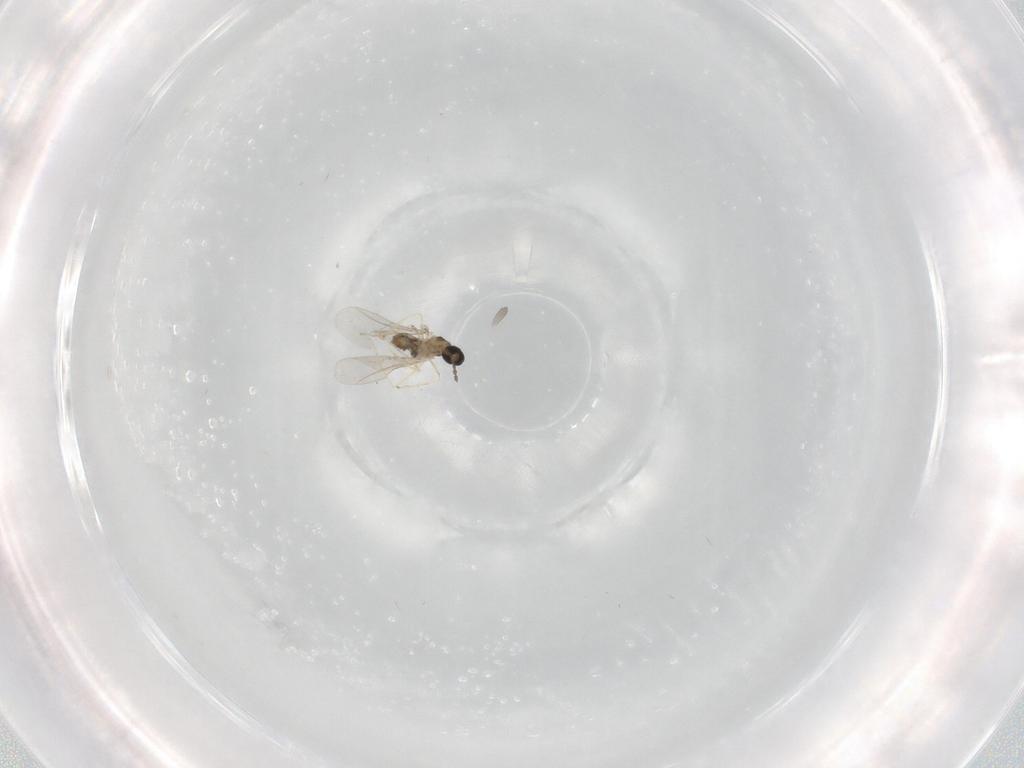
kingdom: Animalia
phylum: Arthropoda
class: Insecta
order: Diptera
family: Cecidomyiidae
